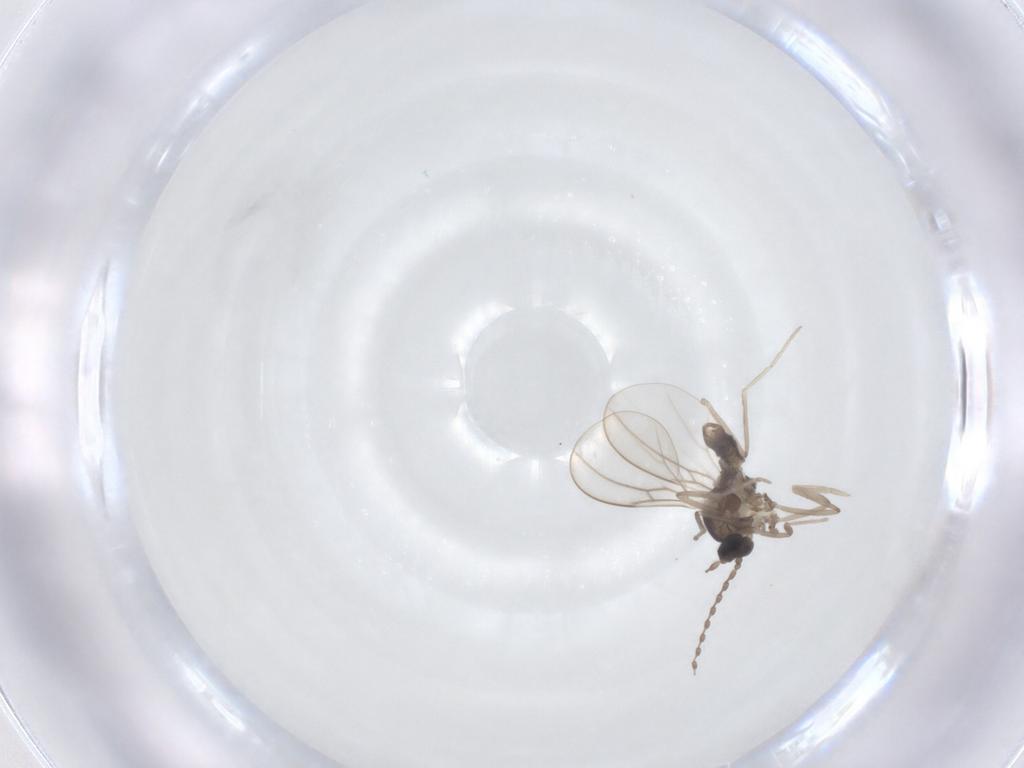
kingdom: Animalia
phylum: Arthropoda
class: Insecta
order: Diptera
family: Cecidomyiidae
